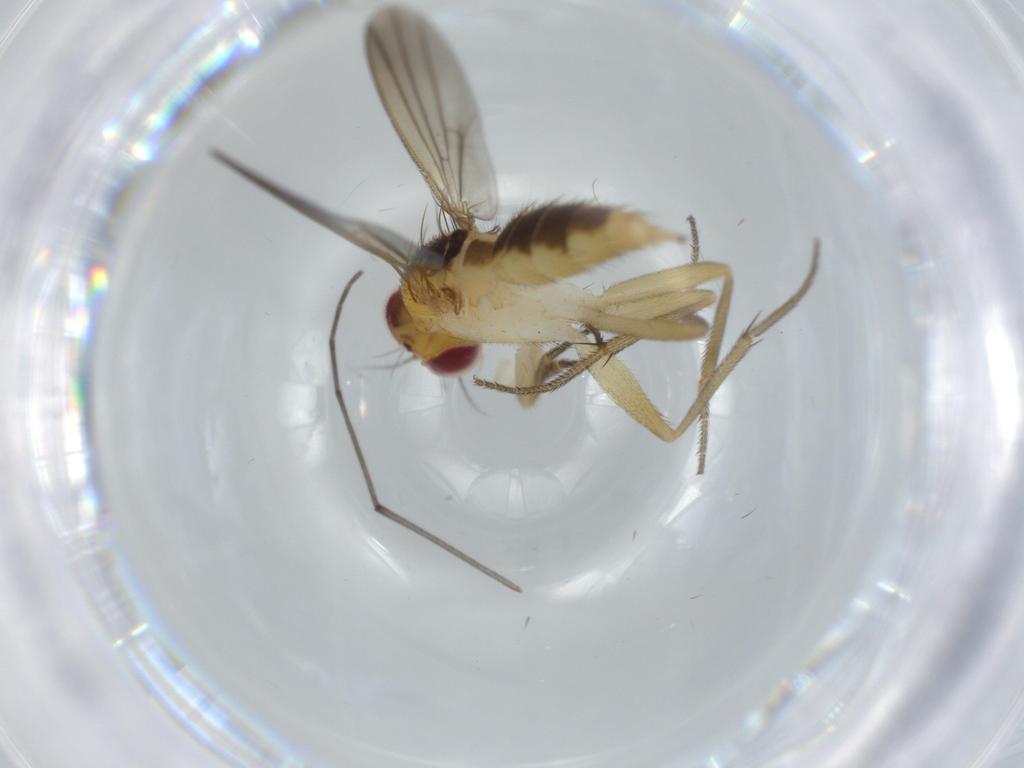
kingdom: Animalia
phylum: Arthropoda
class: Insecta
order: Diptera
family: Clusiidae
